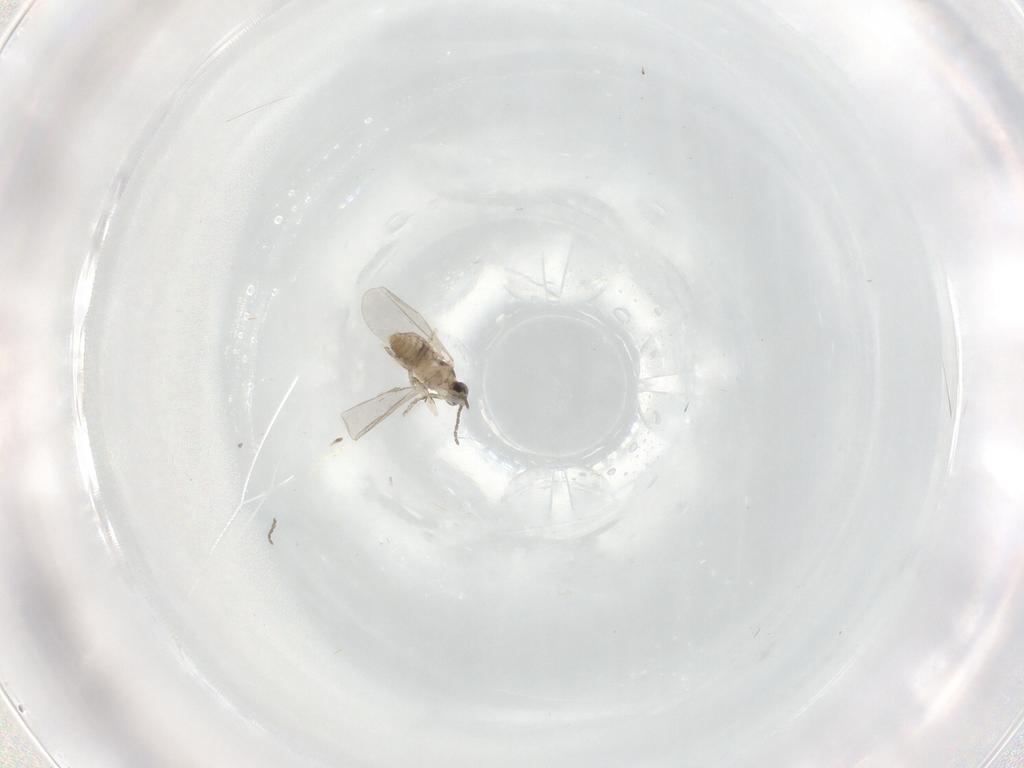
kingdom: Animalia
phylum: Arthropoda
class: Insecta
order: Diptera
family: Cecidomyiidae
